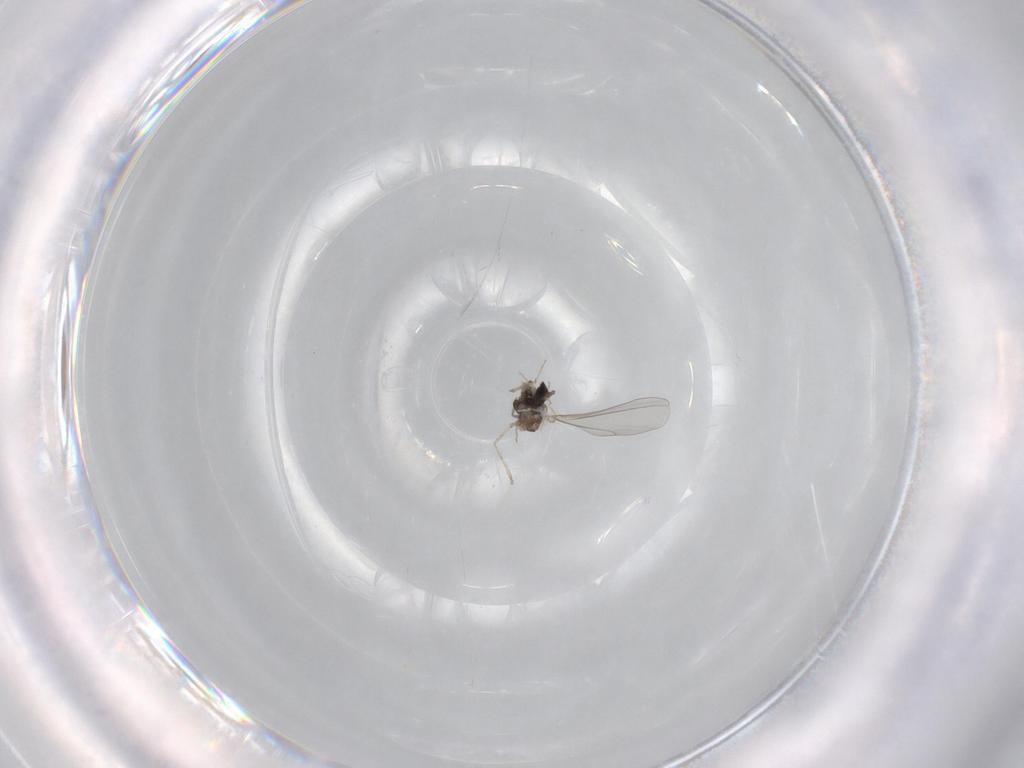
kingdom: Animalia
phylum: Arthropoda
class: Insecta
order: Diptera
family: Cecidomyiidae
